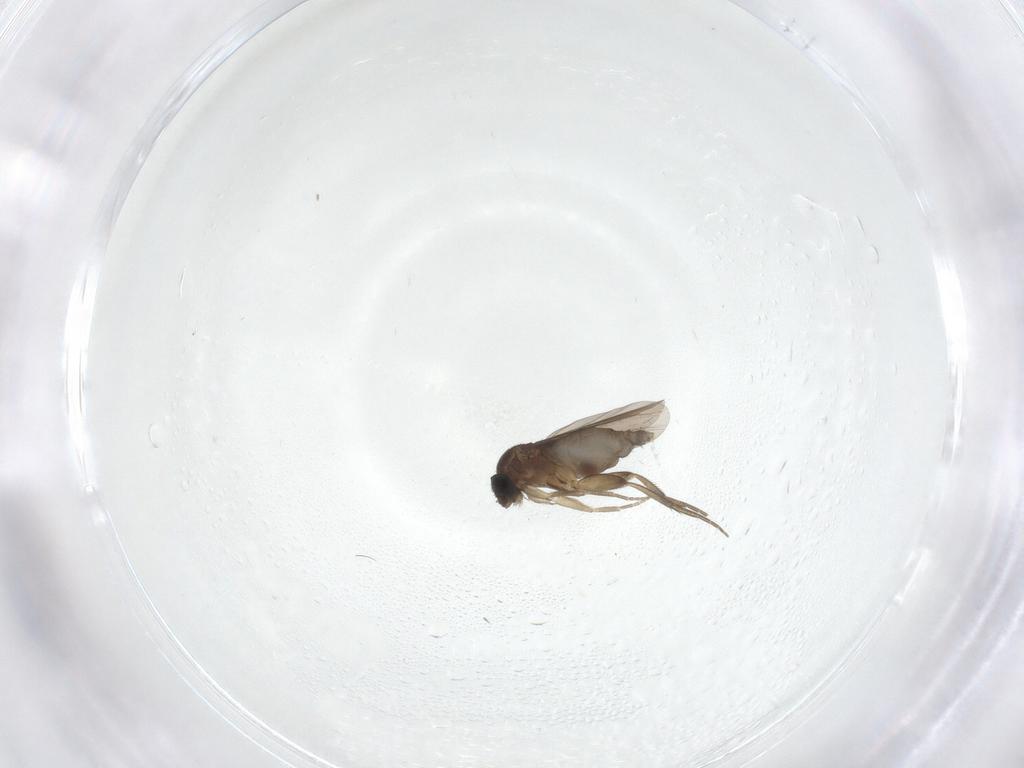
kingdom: Animalia
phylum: Arthropoda
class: Insecta
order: Diptera
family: Phoridae
